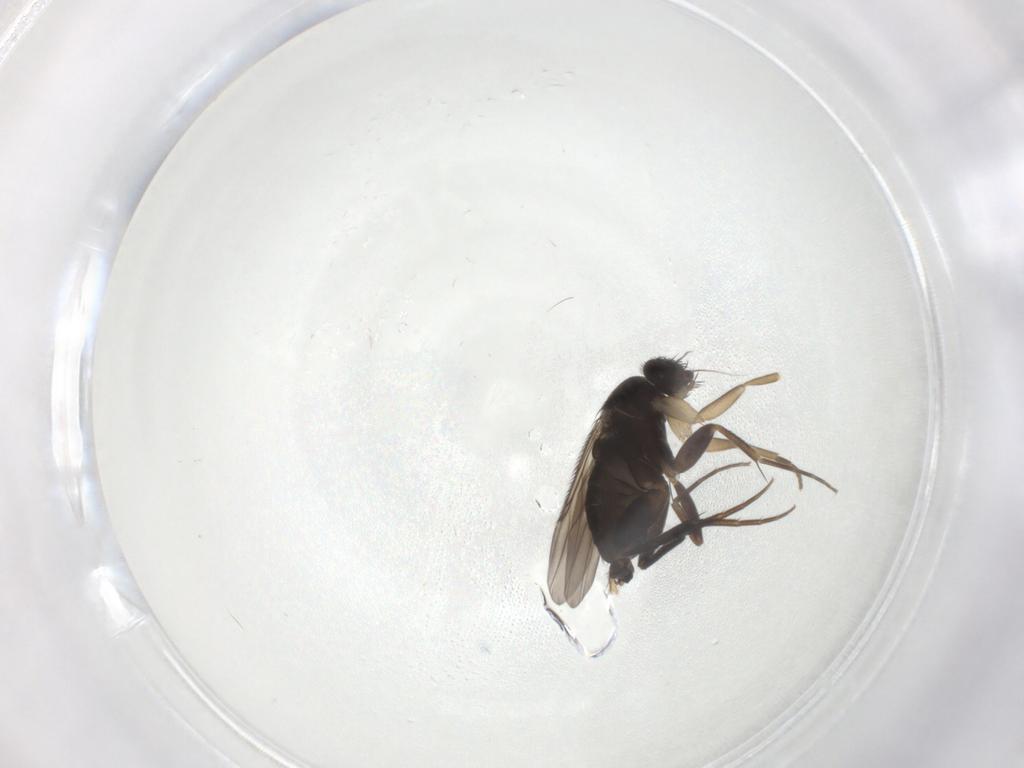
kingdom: Animalia
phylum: Arthropoda
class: Insecta
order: Diptera
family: Phoridae
